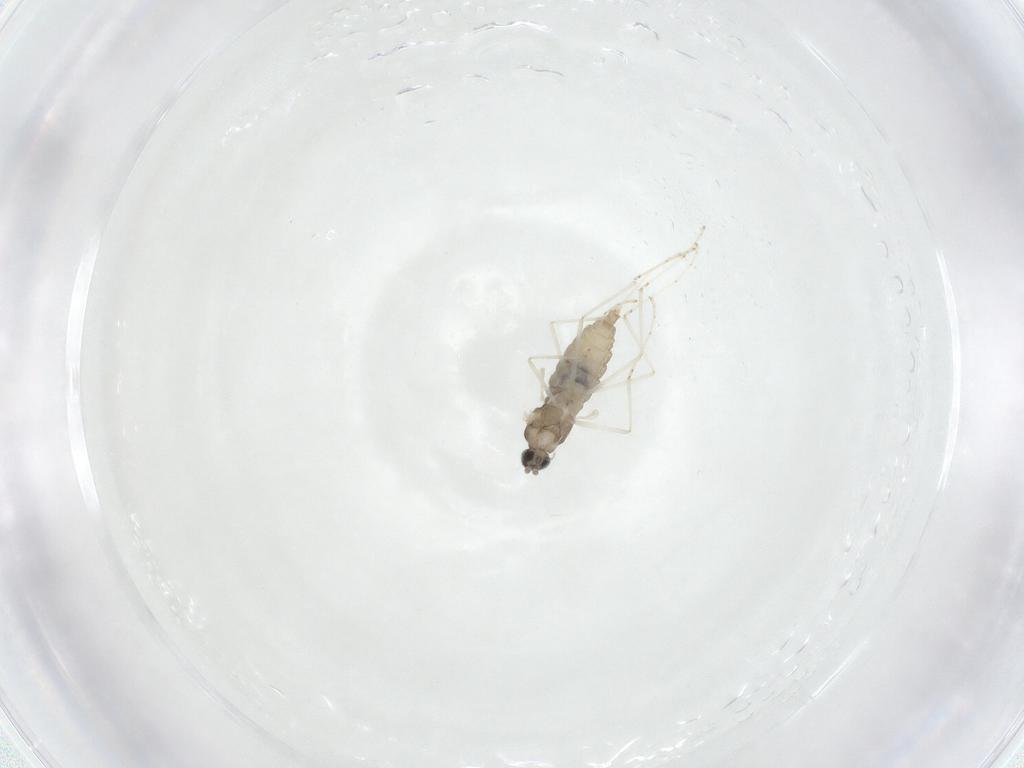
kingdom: Animalia
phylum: Arthropoda
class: Insecta
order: Diptera
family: Cecidomyiidae
